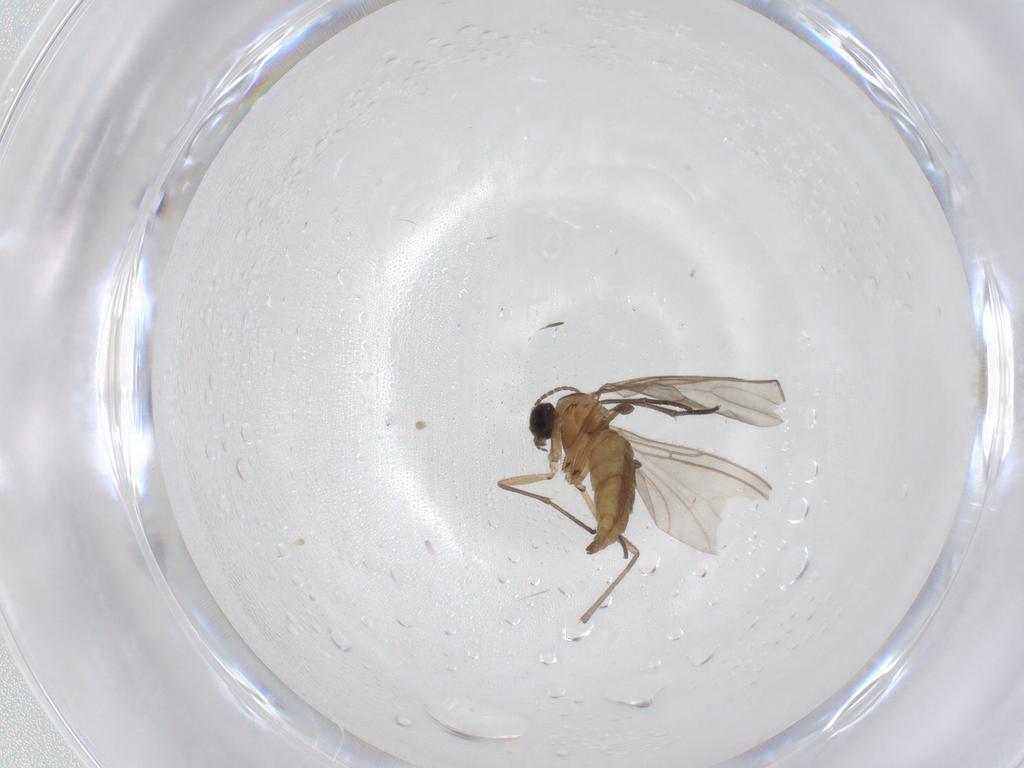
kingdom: Animalia
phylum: Arthropoda
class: Insecta
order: Diptera
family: Sciaridae
